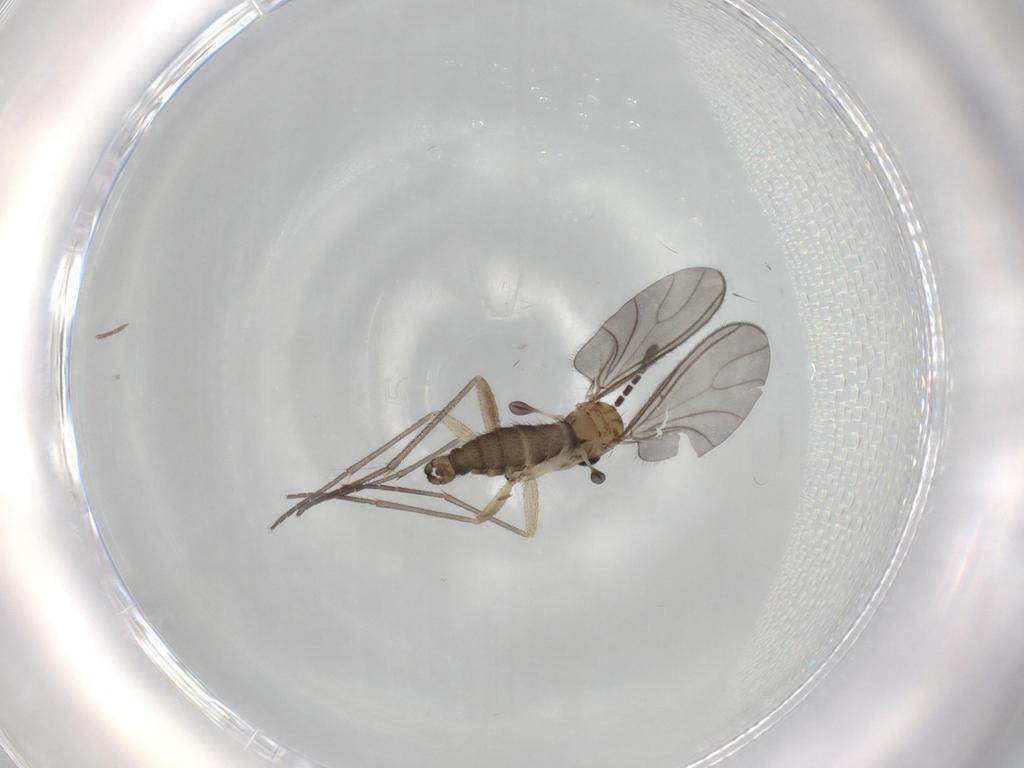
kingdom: Animalia
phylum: Arthropoda
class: Insecta
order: Diptera
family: Sciaridae
